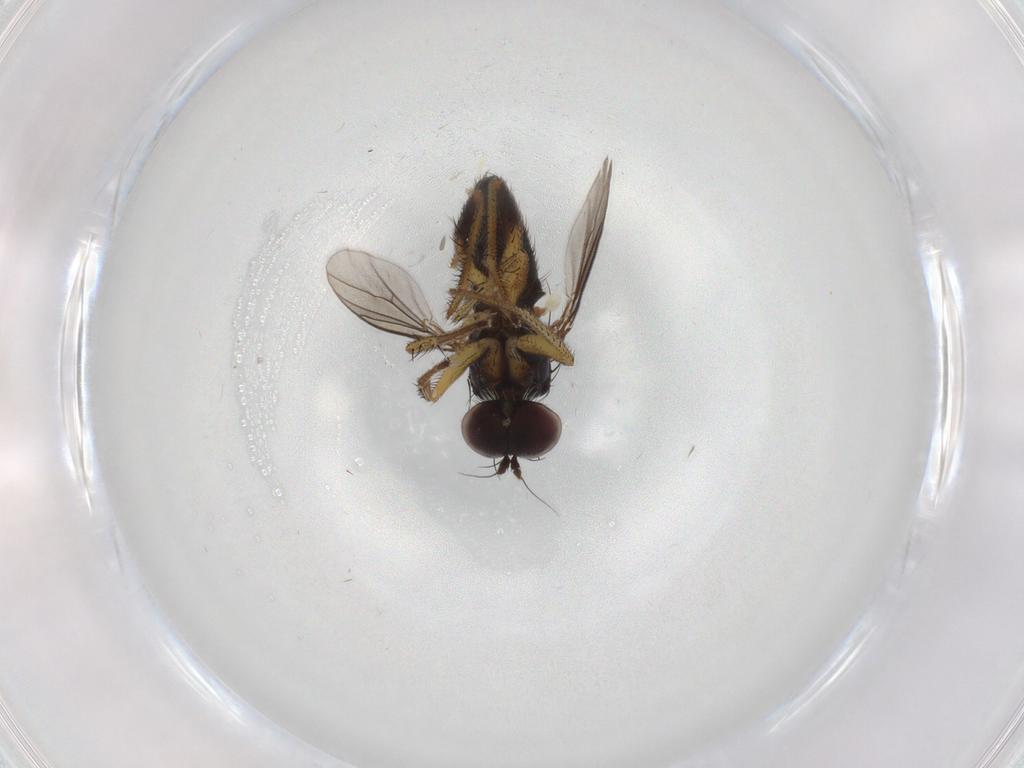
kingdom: Animalia
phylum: Arthropoda
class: Insecta
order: Diptera
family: Dolichopodidae
